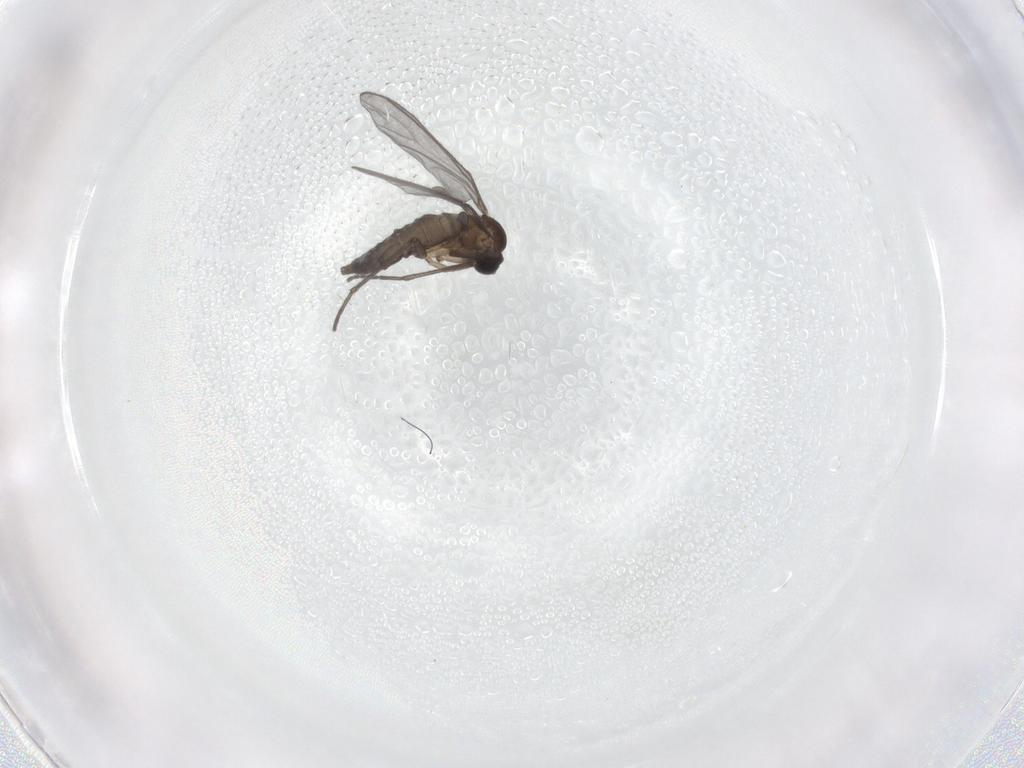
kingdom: Animalia
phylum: Arthropoda
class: Insecta
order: Diptera
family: Sciaridae
